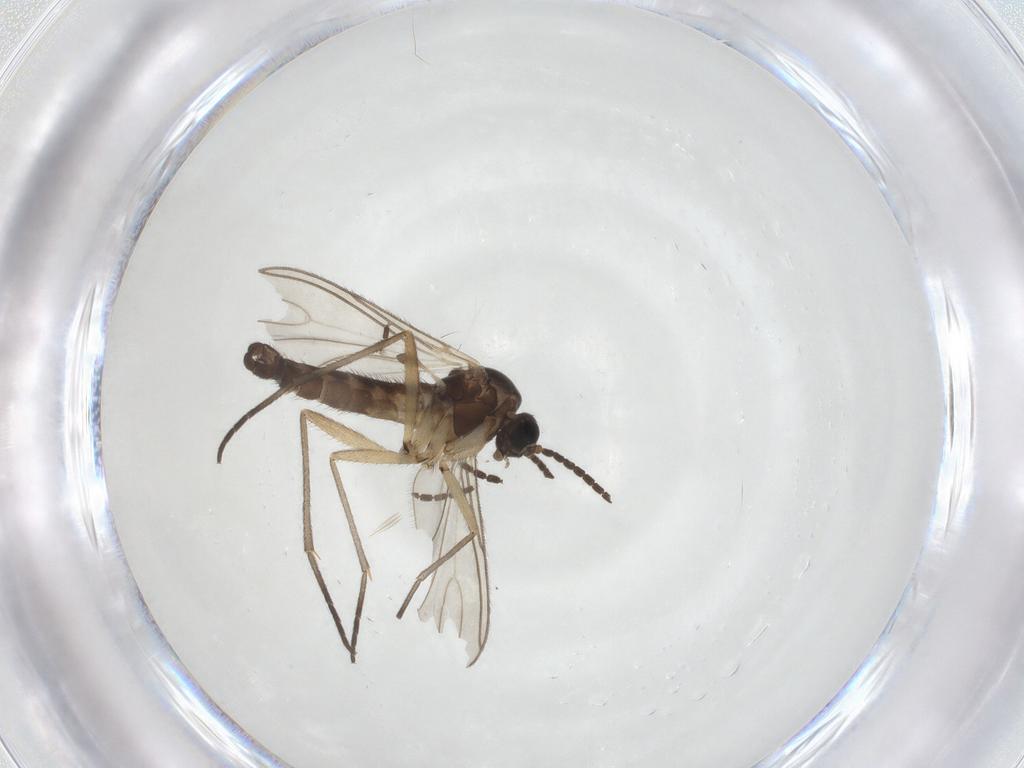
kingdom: Animalia
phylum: Arthropoda
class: Insecta
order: Diptera
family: Sciaridae
